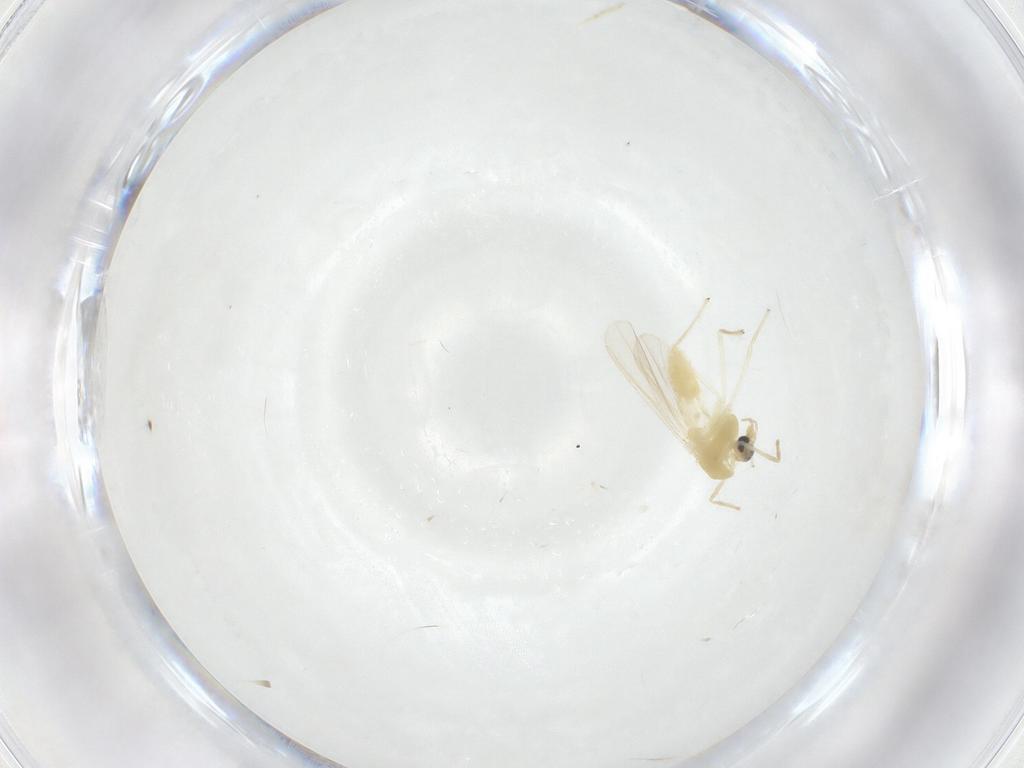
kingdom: Animalia
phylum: Arthropoda
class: Insecta
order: Diptera
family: Chironomidae
